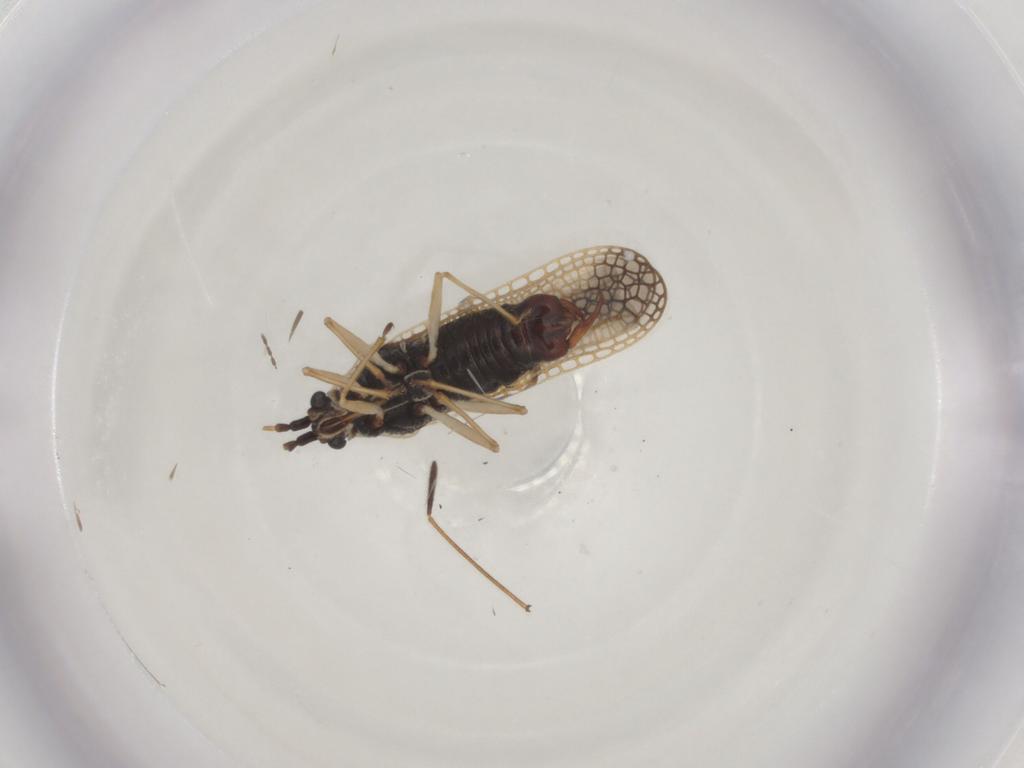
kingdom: Animalia
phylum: Arthropoda
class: Insecta
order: Hemiptera
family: Tingidae
